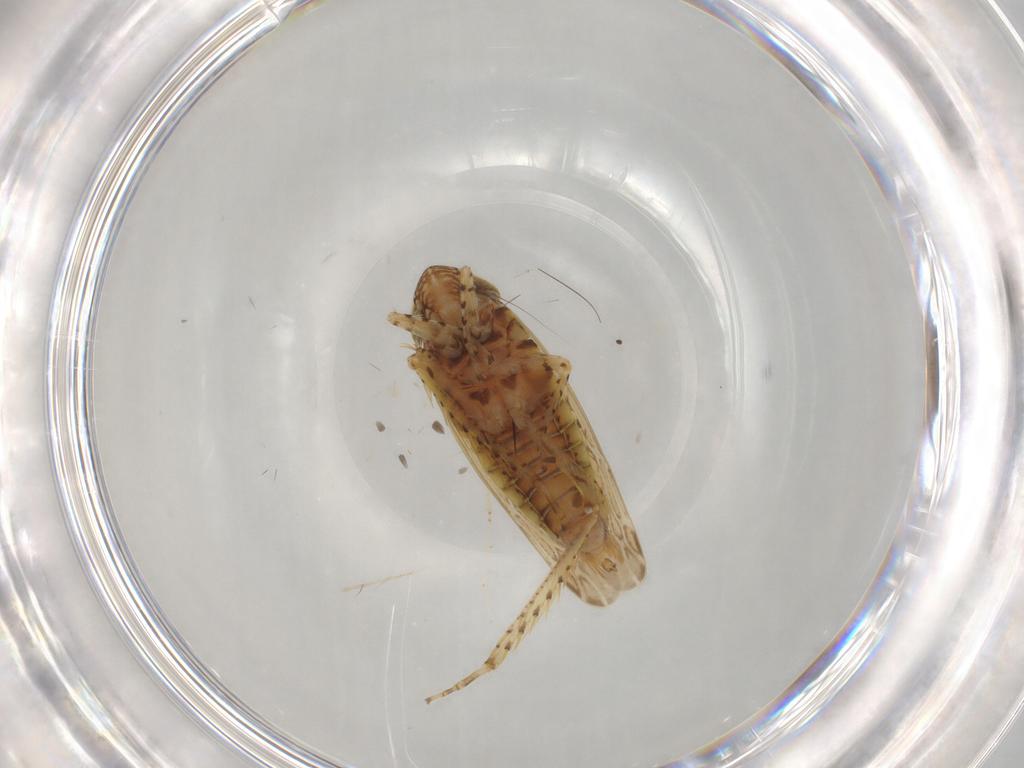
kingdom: Animalia
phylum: Arthropoda
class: Insecta
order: Hemiptera
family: Cicadellidae
